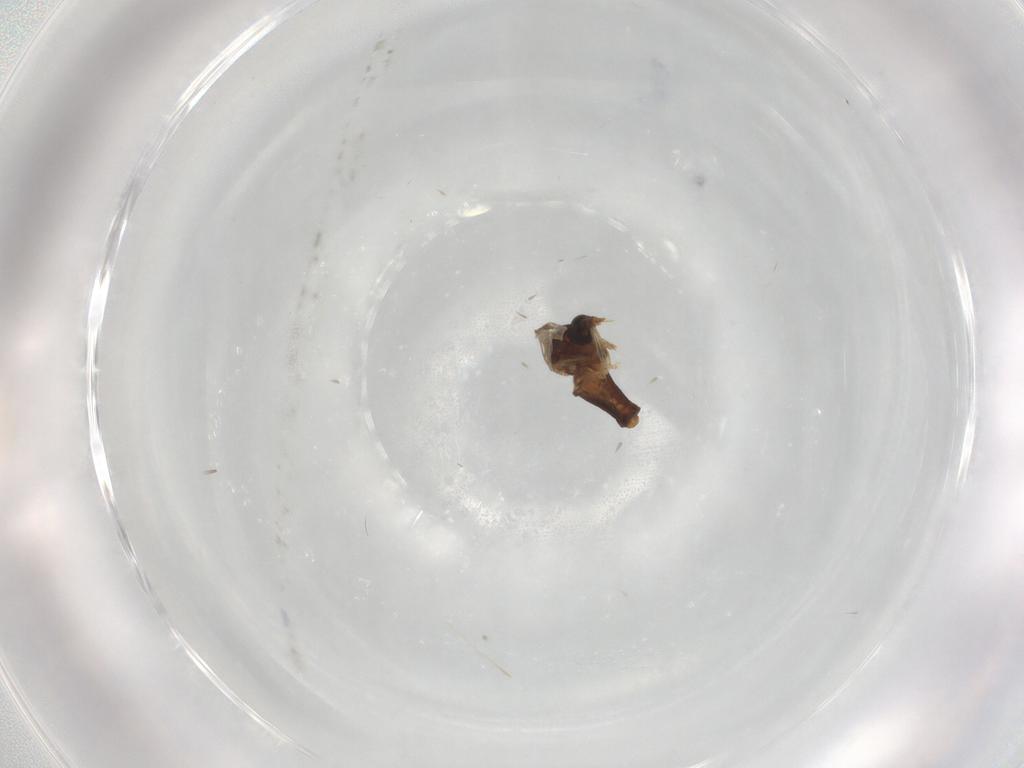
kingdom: Animalia
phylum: Arthropoda
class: Insecta
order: Diptera
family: Ceratopogonidae
